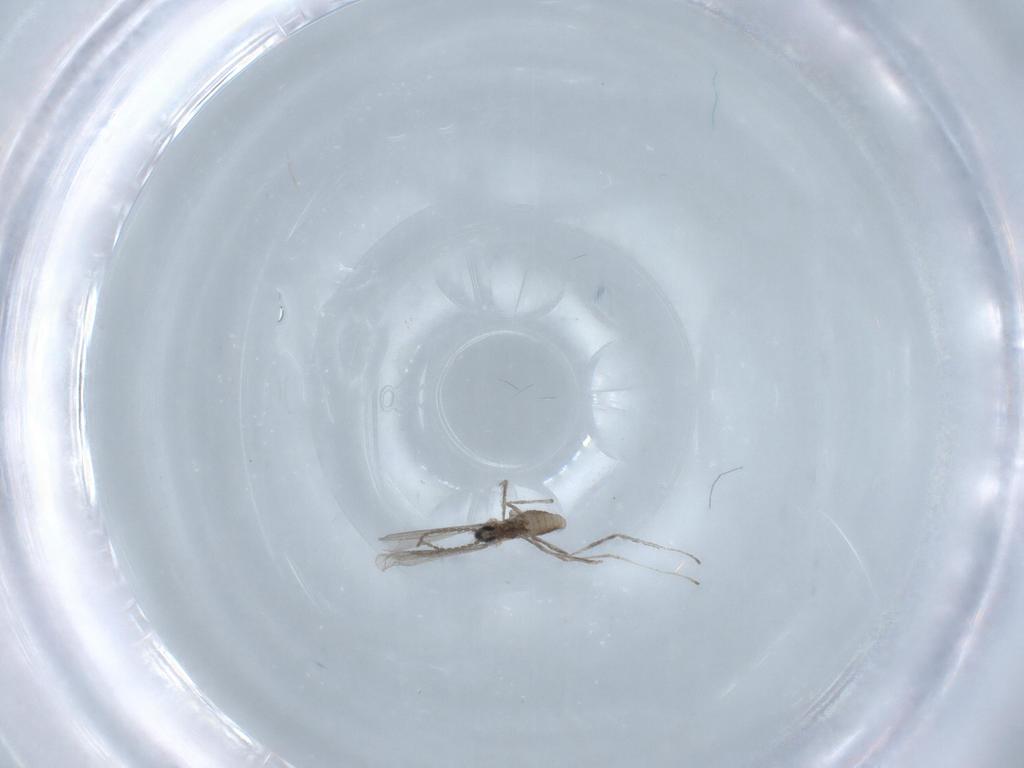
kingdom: Animalia
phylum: Arthropoda
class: Insecta
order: Diptera
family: Cecidomyiidae
